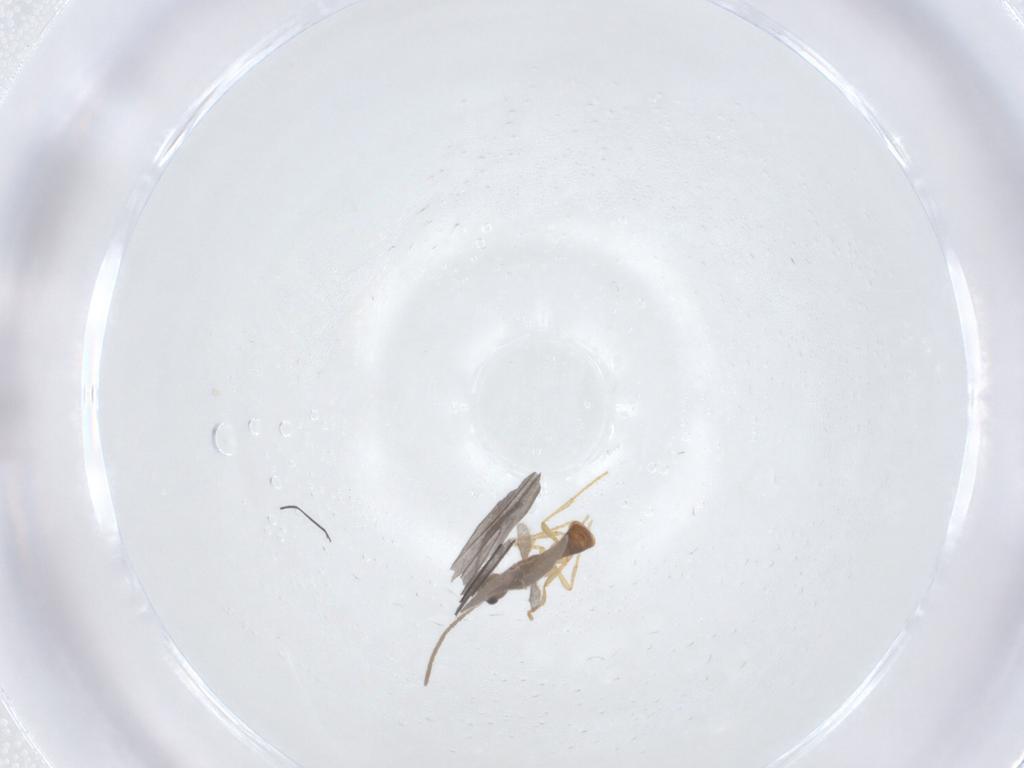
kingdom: Animalia
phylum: Arthropoda
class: Insecta
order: Hymenoptera
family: Formicidae
